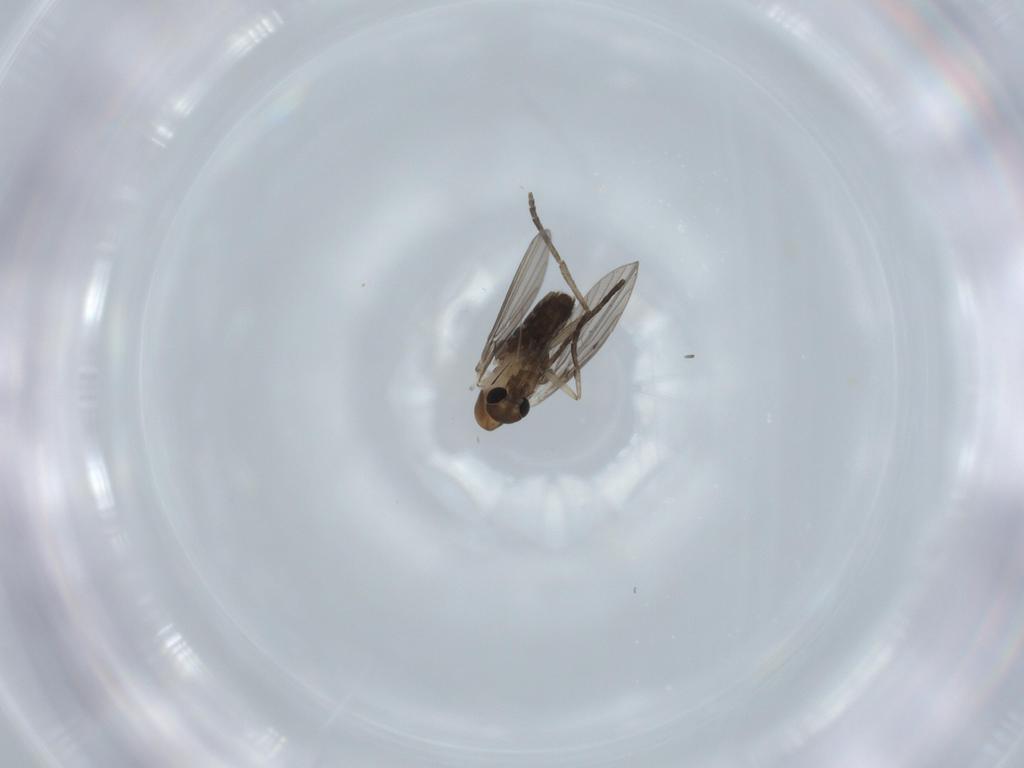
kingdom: Animalia
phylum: Arthropoda
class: Insecta
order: Diptera
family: Psychodidae
